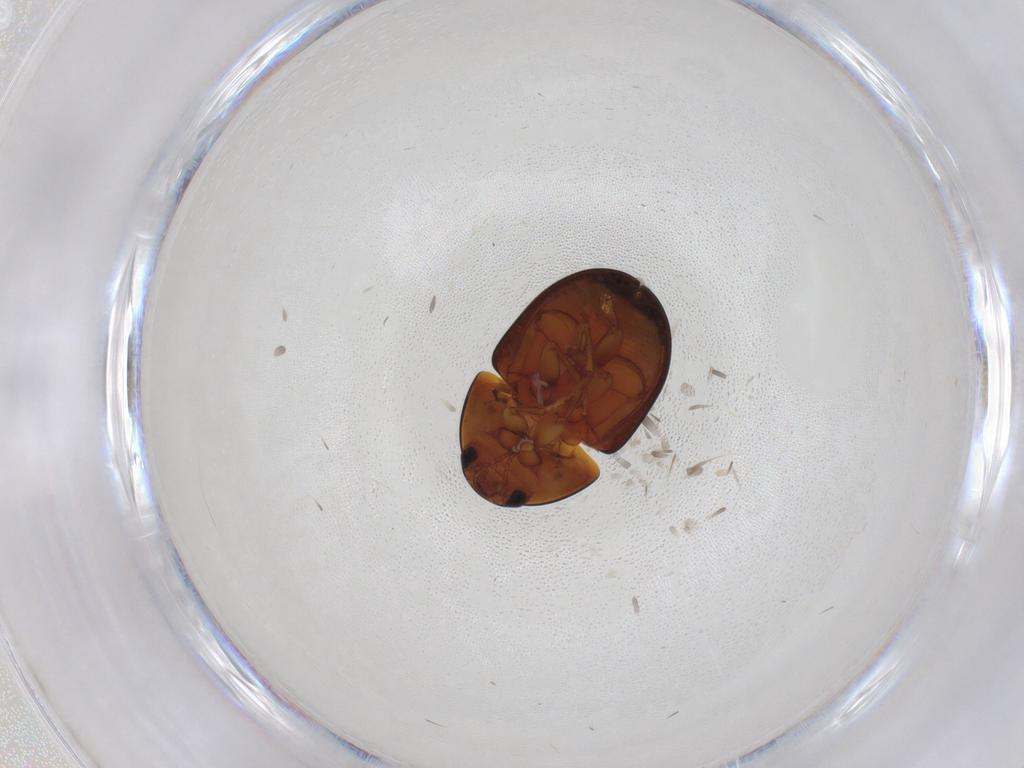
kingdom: Animalia
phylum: Arthropoda
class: Insecta
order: Coleoptera
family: Phalacridae
